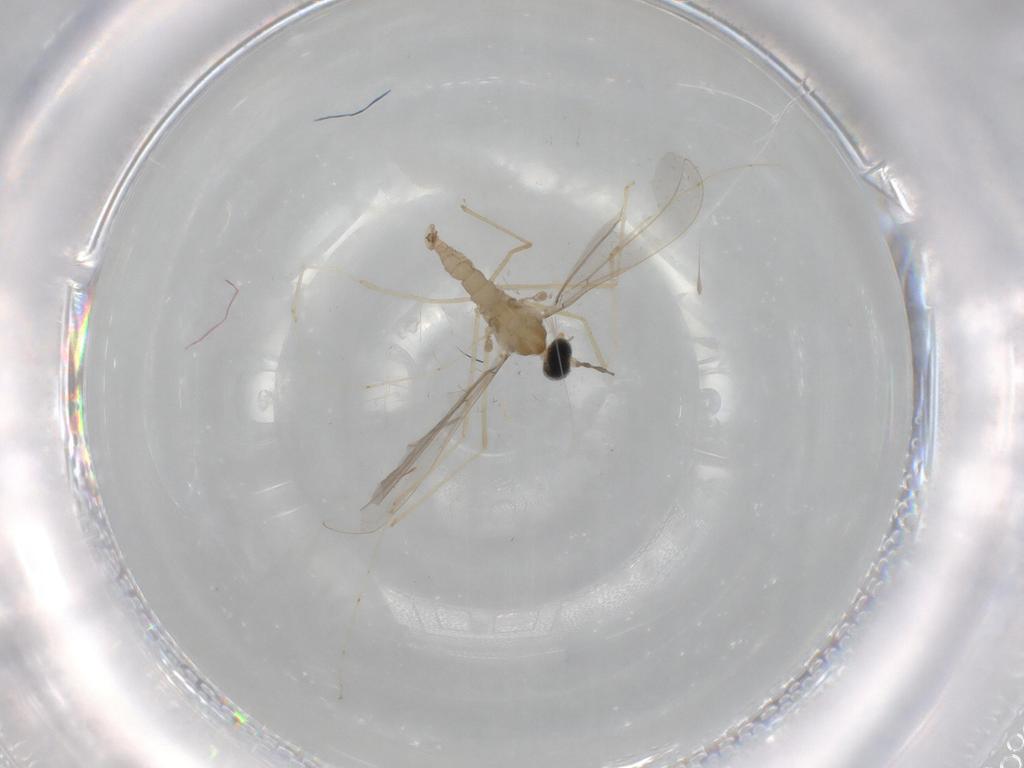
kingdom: Animalia
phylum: Arthropoda
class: Insecta
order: Diptera
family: Cecidomyiidae
